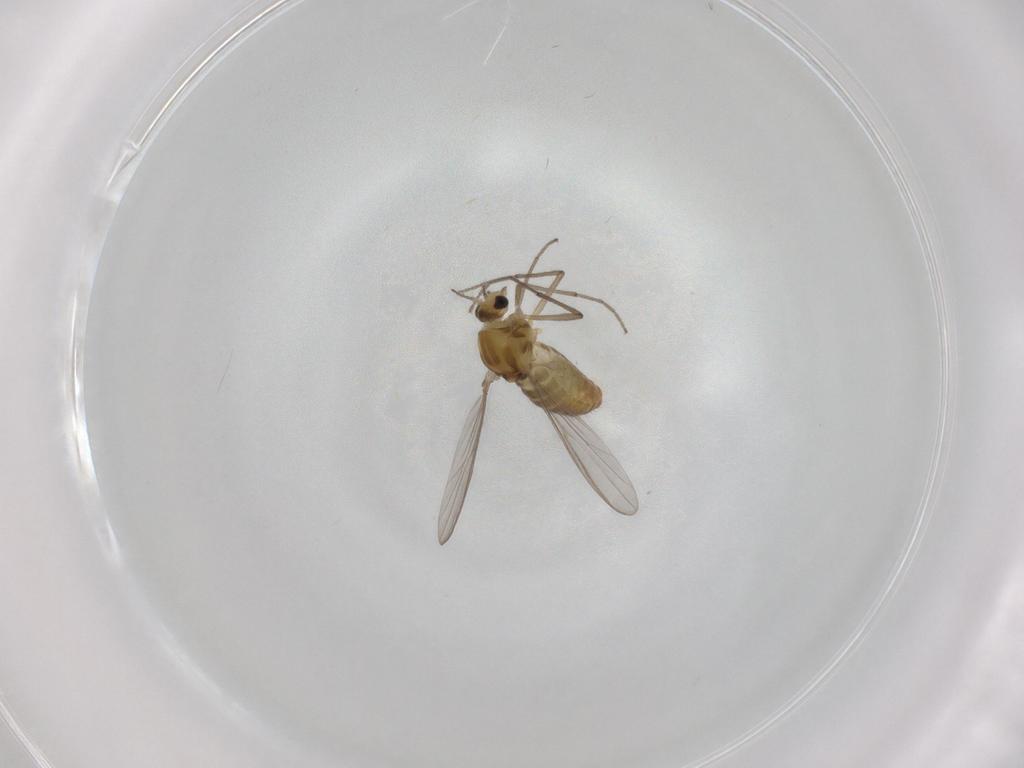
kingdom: Animalia
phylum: Arthropoda
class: Insecta
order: Diptera
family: Chironomidae
